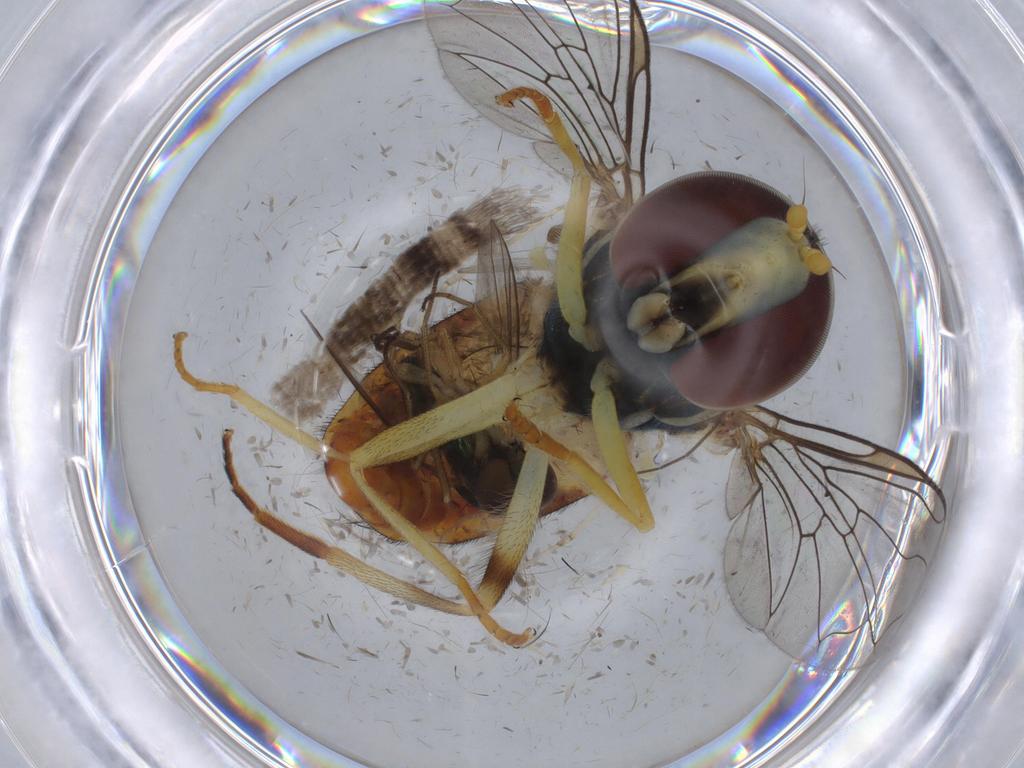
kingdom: Animalia
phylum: Arthropoda
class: Insecta
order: Diptera
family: Syrphidae
